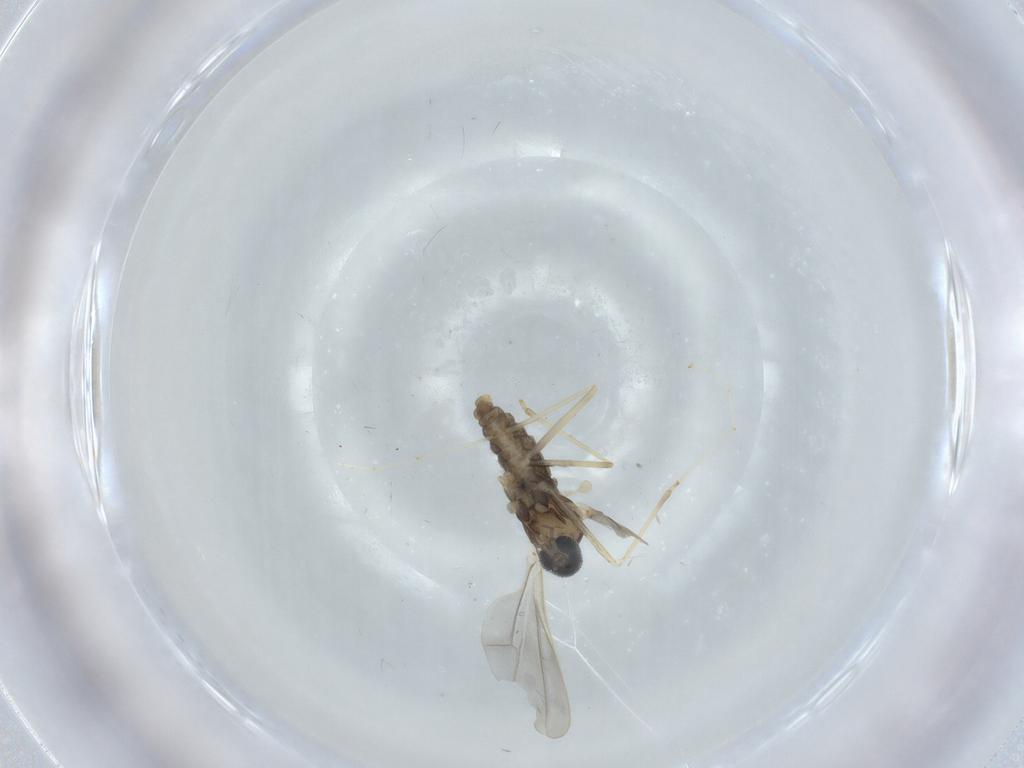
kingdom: Animalia
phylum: Arthropoda
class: Insecta
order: Diptera
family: Cecidomyiidae
